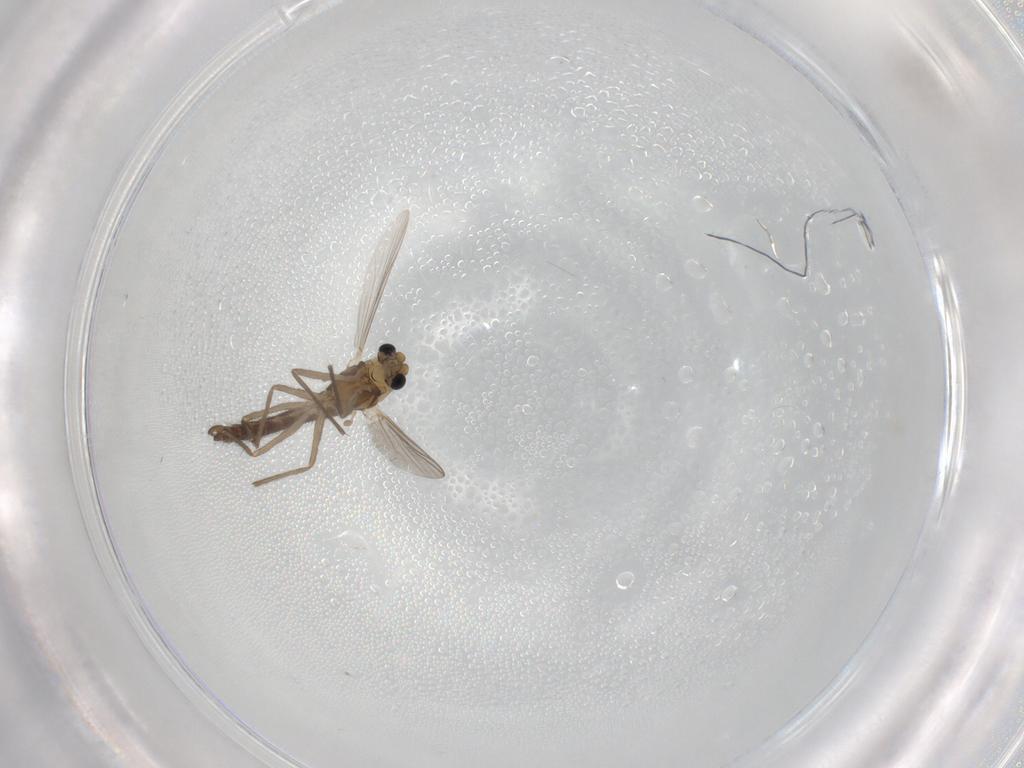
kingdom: Animalia
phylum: Arthropoda
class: Insecta
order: Diptera
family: Chironomidae
